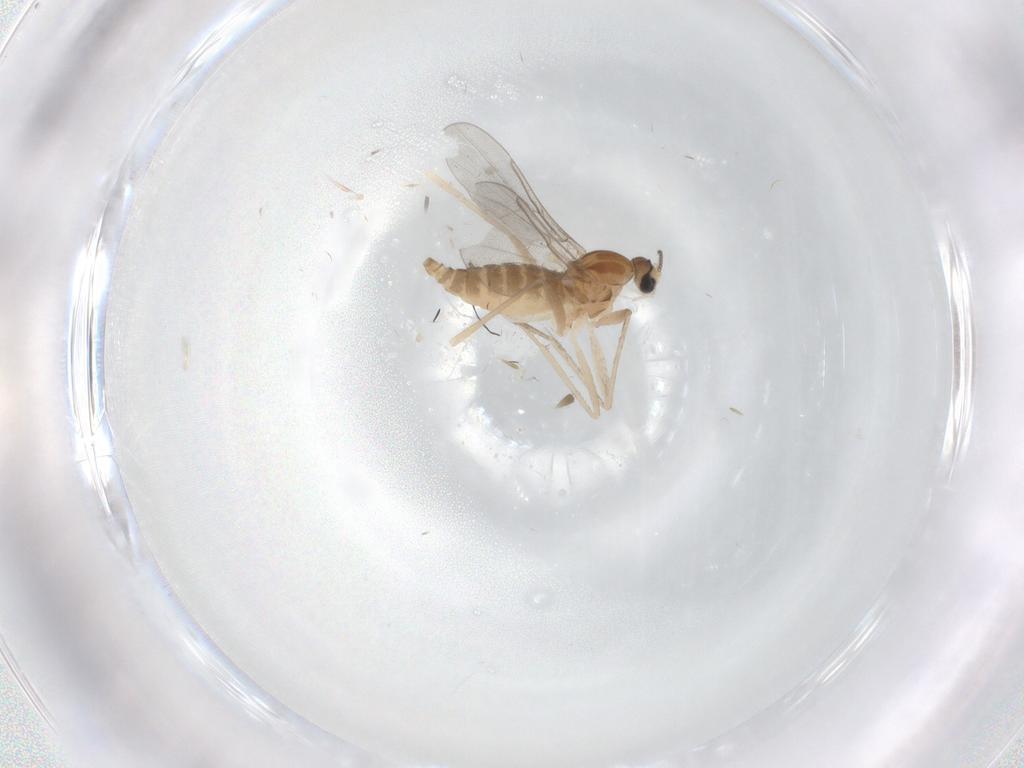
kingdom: Animalia
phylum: Arthropoda
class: Insecta
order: Diptera
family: Cecidomyiidae
